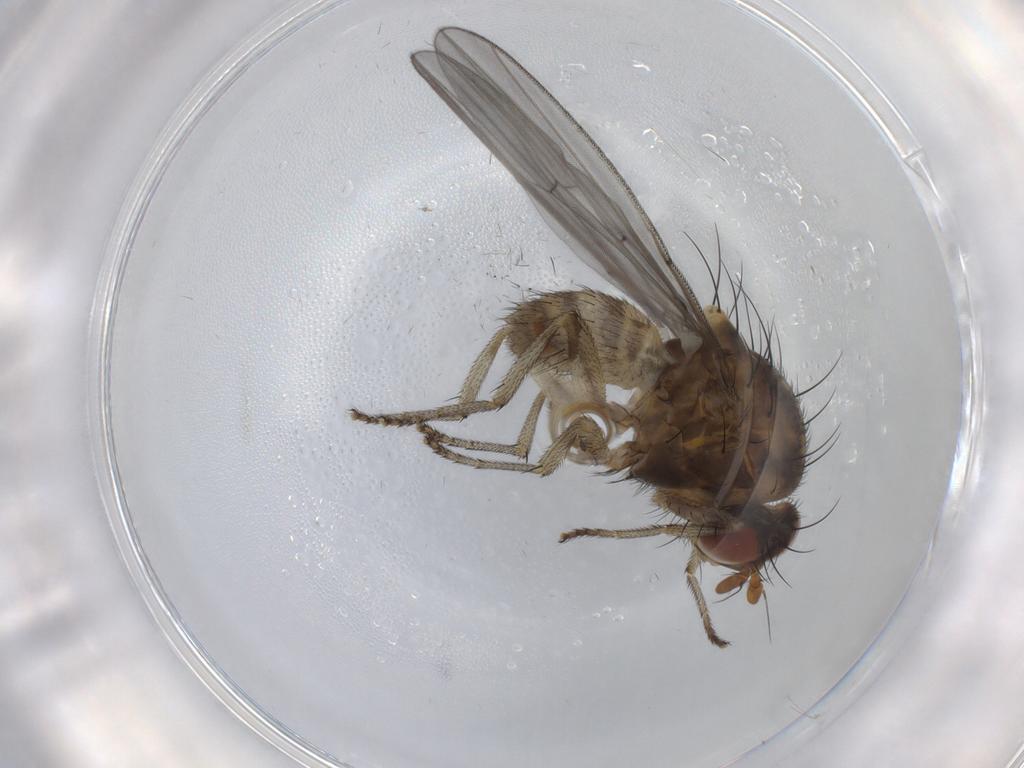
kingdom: Animalia
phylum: Arthropoda
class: Insecta
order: Diptera
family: Lauxaniidae
